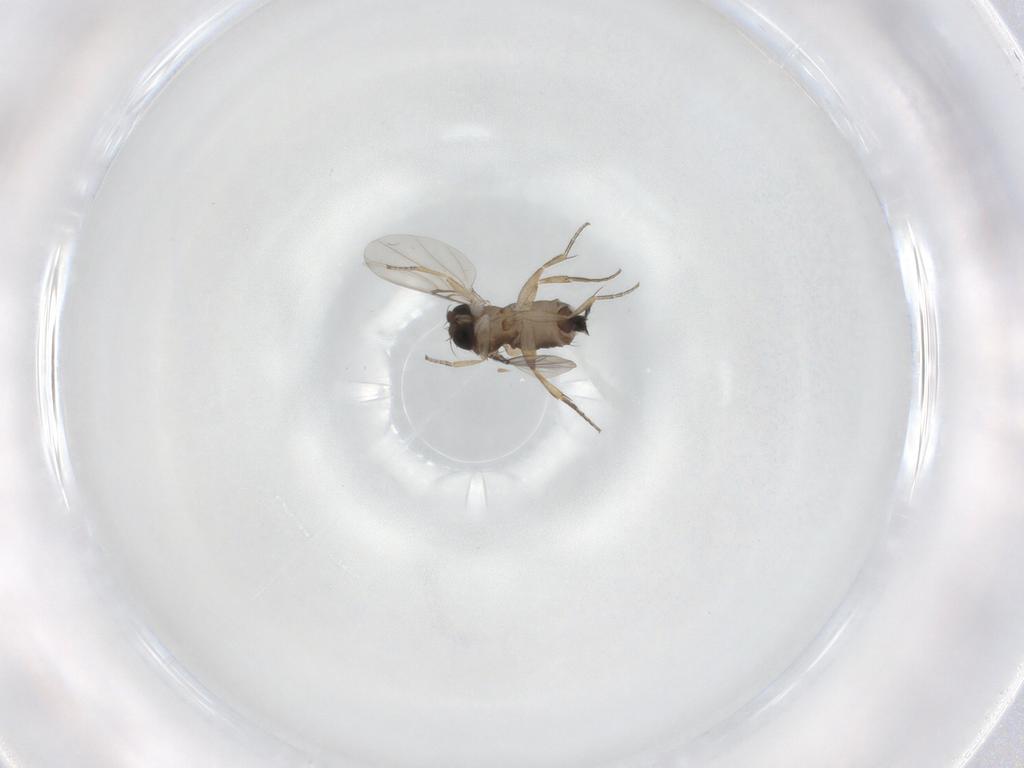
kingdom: Animalia
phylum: Arthropoda
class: Insecta
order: Diptera
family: Phoridae
